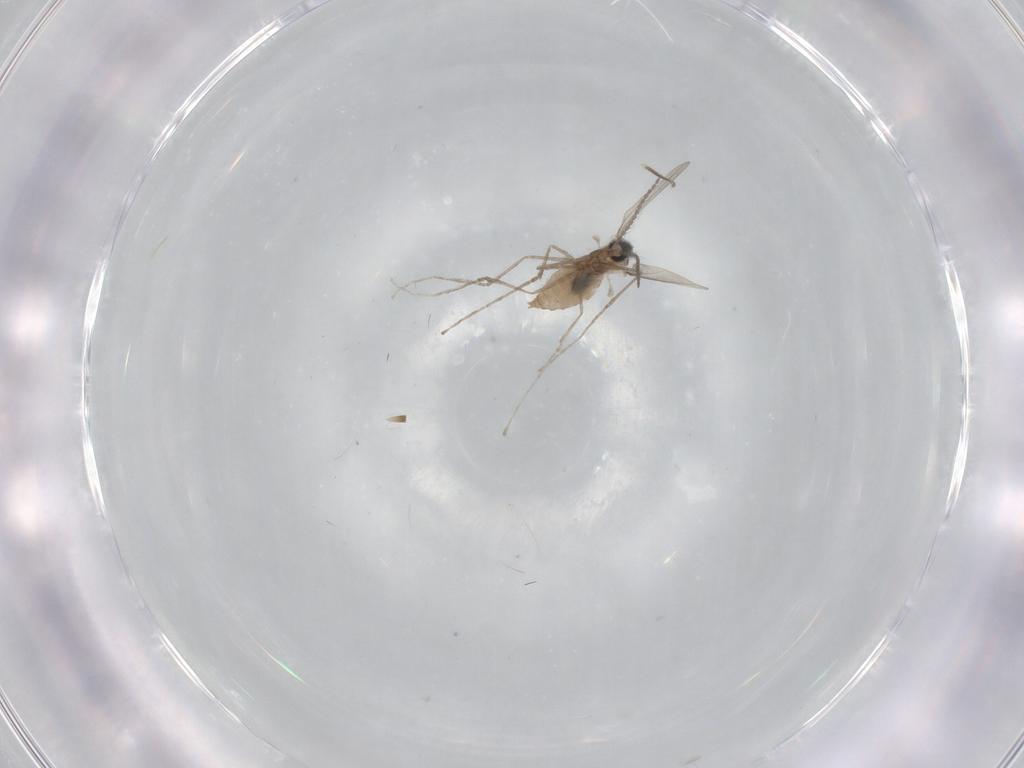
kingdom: Animalia
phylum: Arthropoda
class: Insecta
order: Diptera
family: Cecidomyiidae
